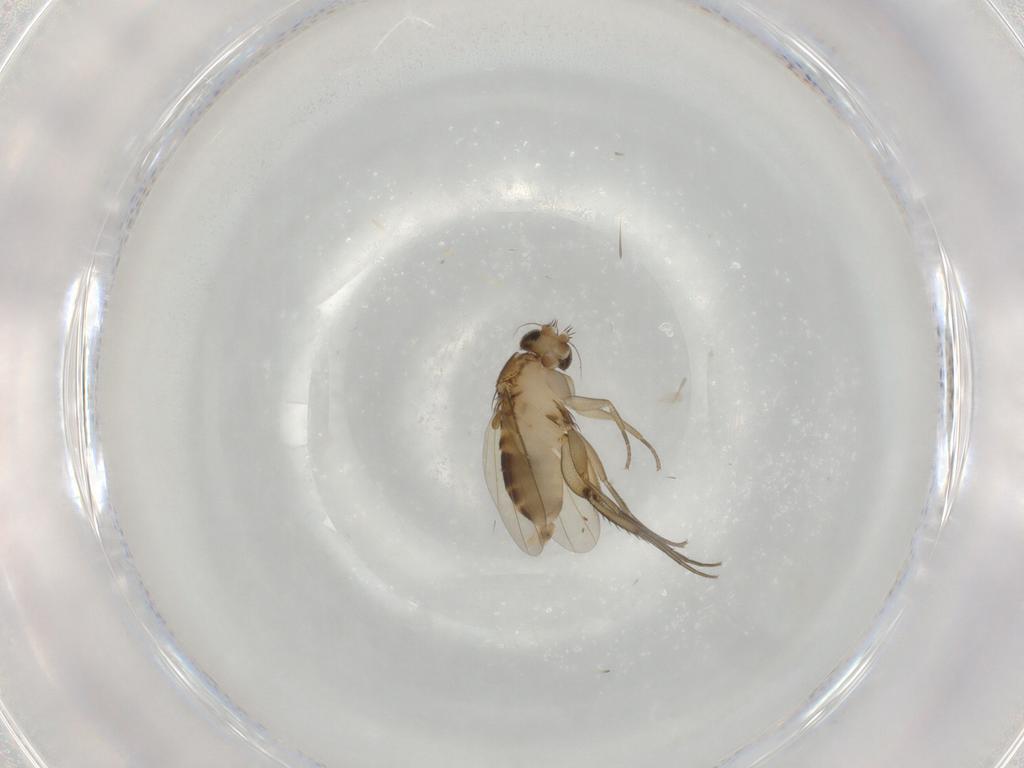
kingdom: Animalia
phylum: Arthropoda
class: Insecta
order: Diptera
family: Phoridae
